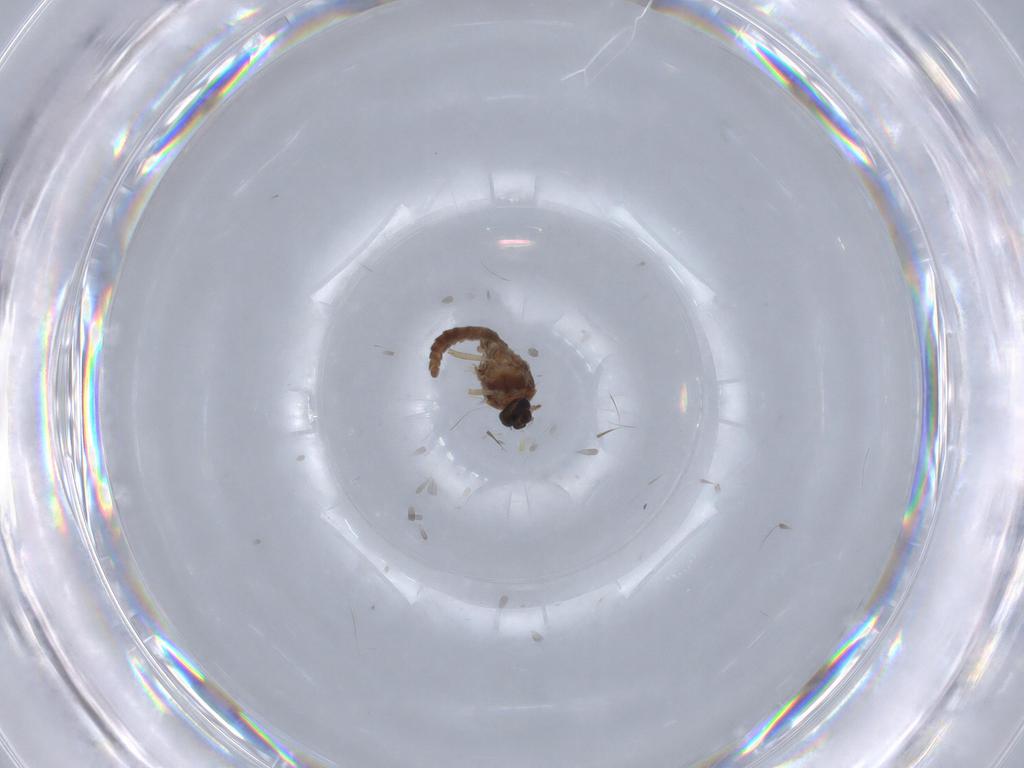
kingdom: Animalia
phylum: Arthropoda
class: Insecta
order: Diptera
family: Ceratopogonidae
